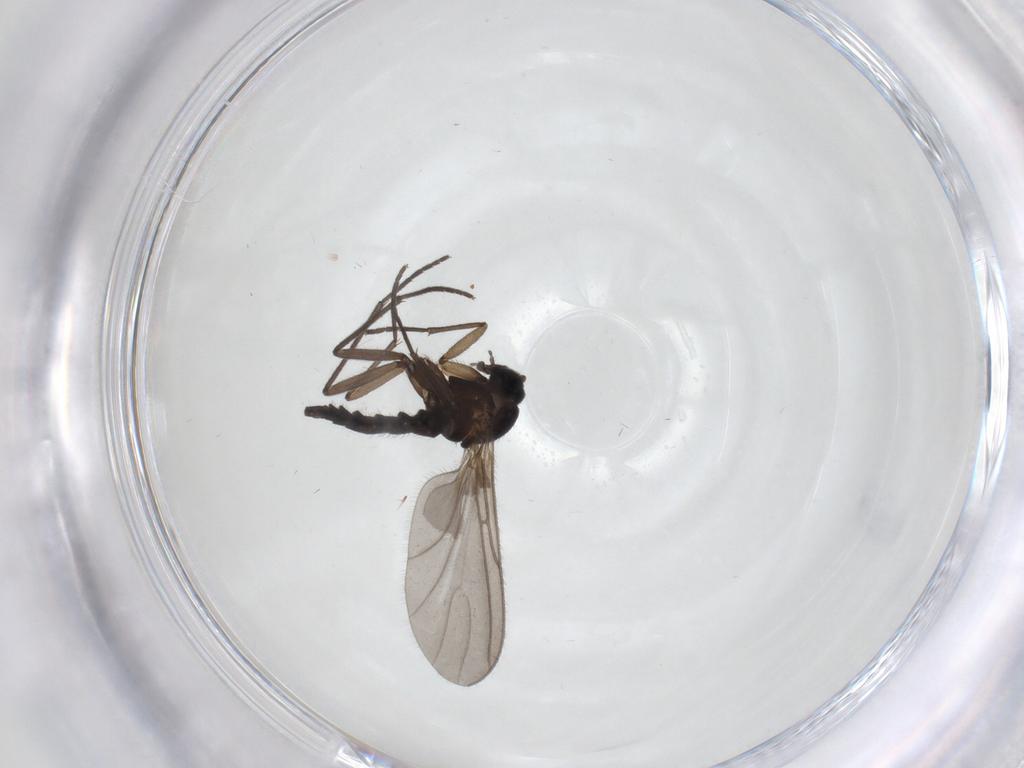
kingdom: Animalia
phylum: Arthropoda
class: Insecta
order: Diptera
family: Sciaridae
